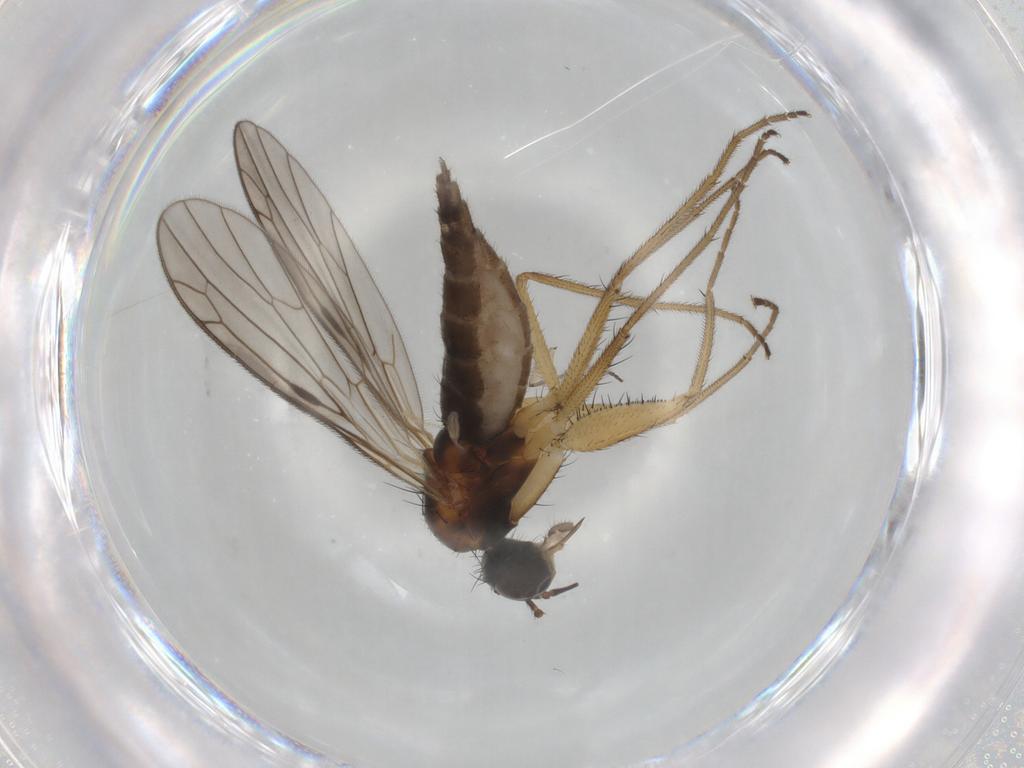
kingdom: Animalia
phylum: Arthropoda
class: Insecta
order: Diptera
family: Empididae
